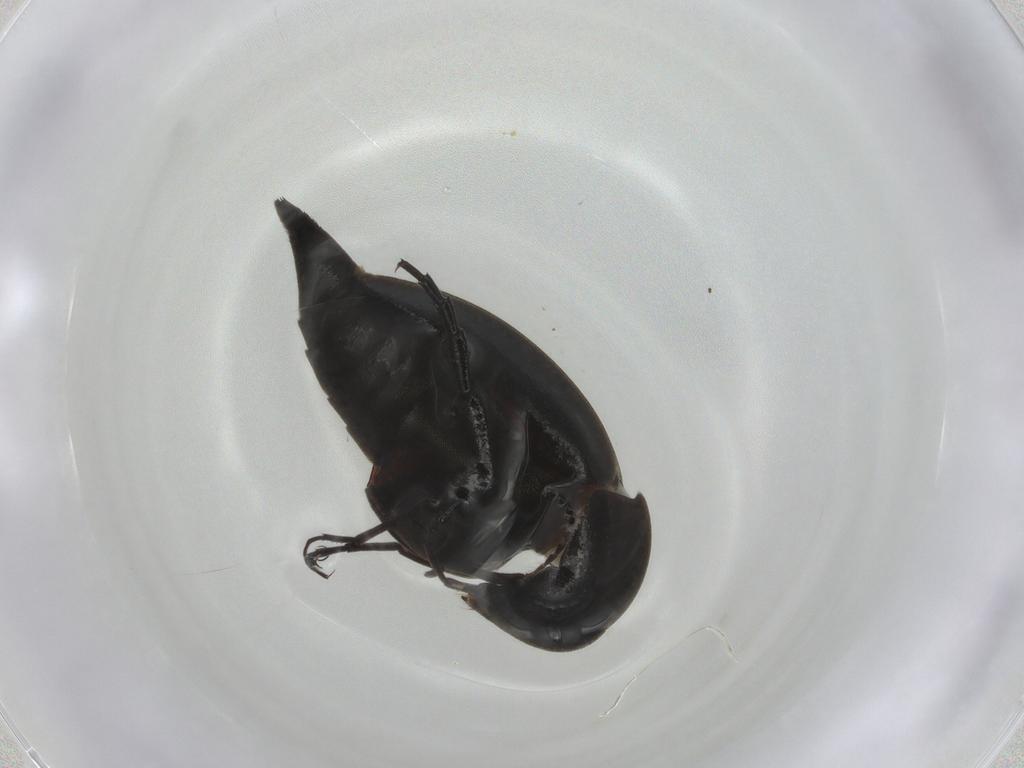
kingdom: Animalia
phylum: Arthropoda
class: Insecta
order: Coleoptera
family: Mordellidae
